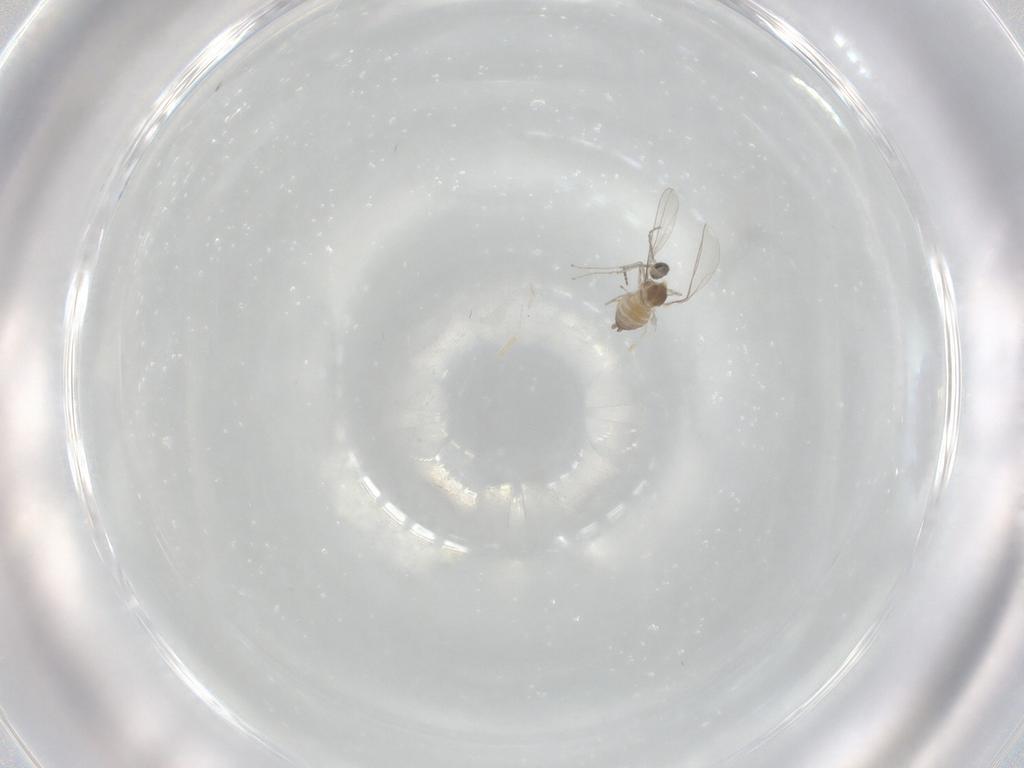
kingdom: Animalia
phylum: Arthropoda
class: Insecta
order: Diptera
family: Cecidomyiidae
